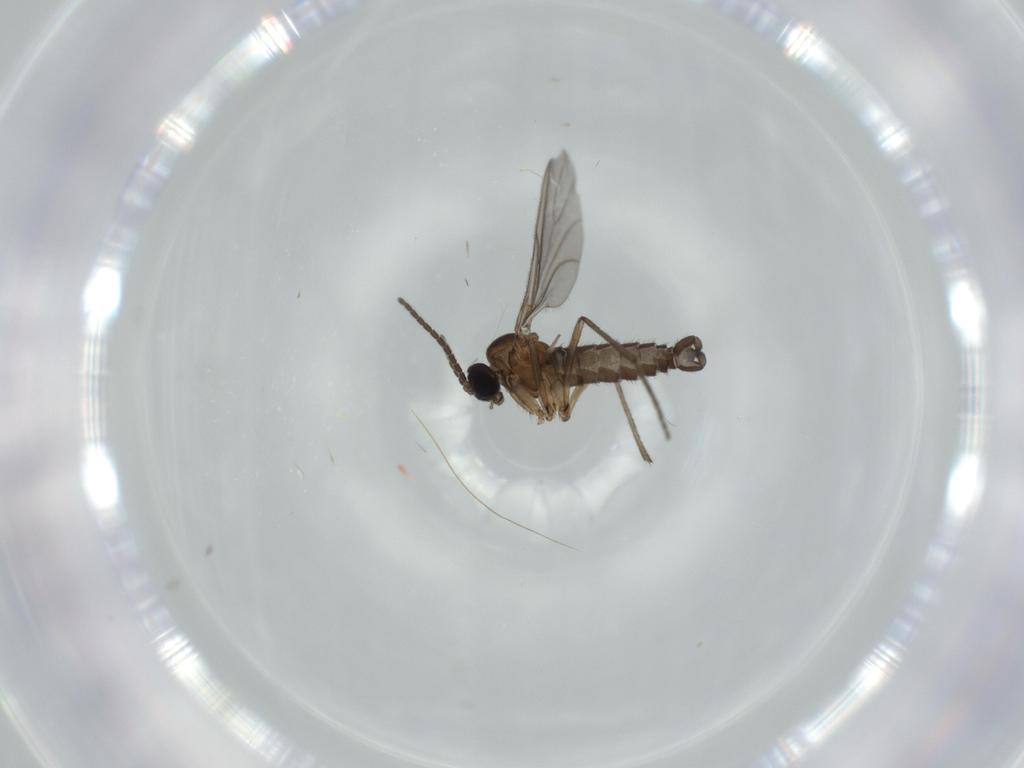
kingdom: Animalia
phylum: Arthropoda
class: Insecta
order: Diptera
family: Sciaridae
